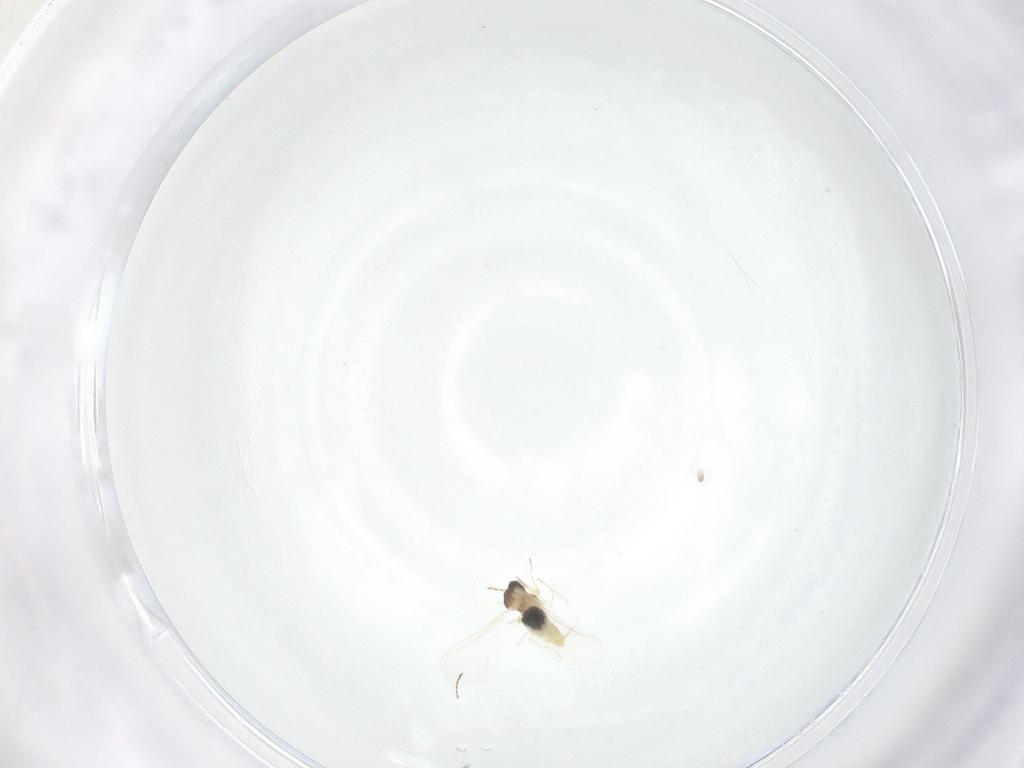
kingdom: Animalia
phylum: Arthropoda
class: Insecta
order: Diptera
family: Cecidomyiidae
